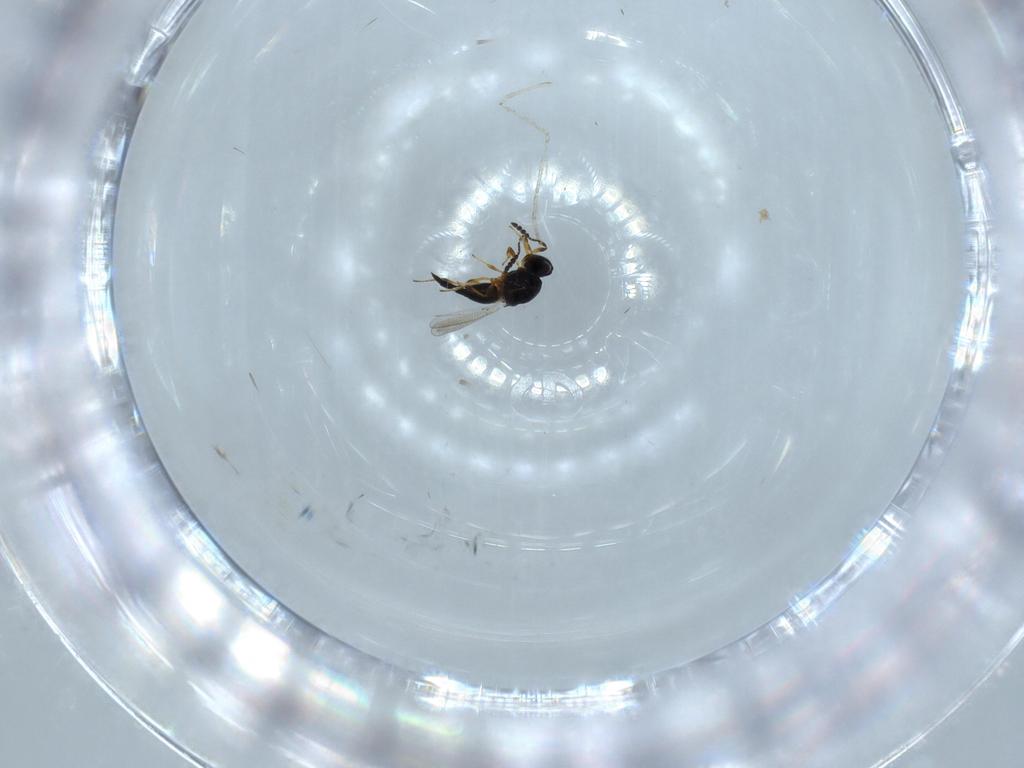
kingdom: Animalia
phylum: Arthropoda
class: Insecta
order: Hymenoptera
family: Platygastridae
